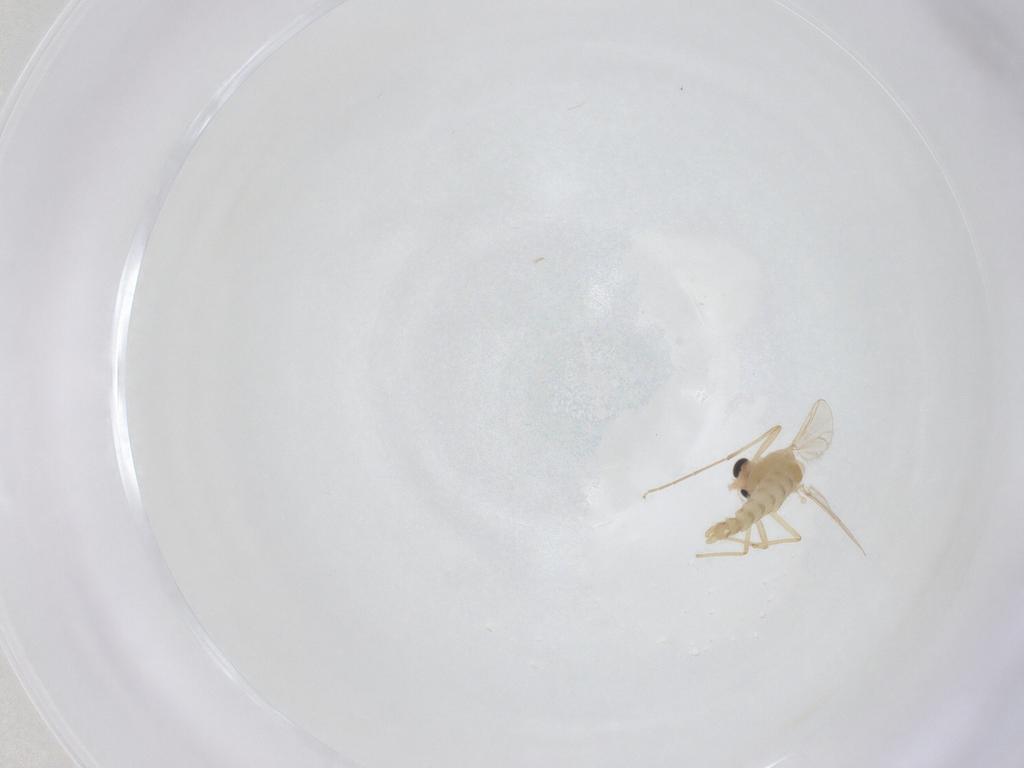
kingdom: Animalia
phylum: Arthropoda
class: Insecta
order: Diptera
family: Chironomidae
